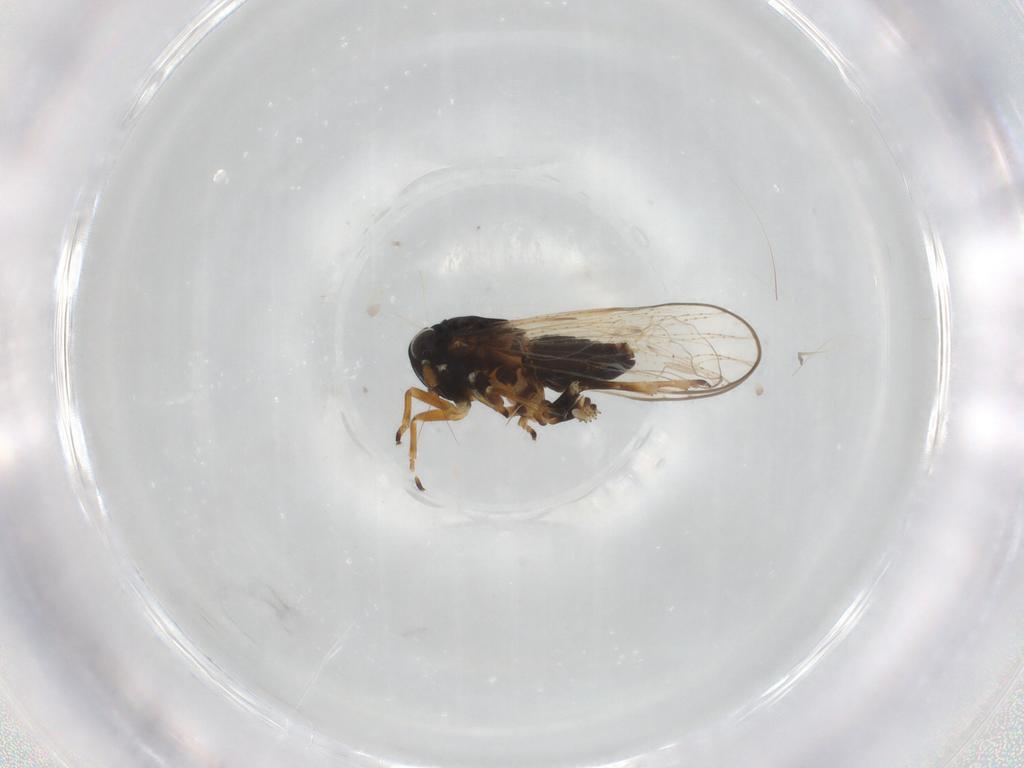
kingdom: Animalia
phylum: Arthropoda
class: Insecta
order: Hemiptera
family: Delphacidae
